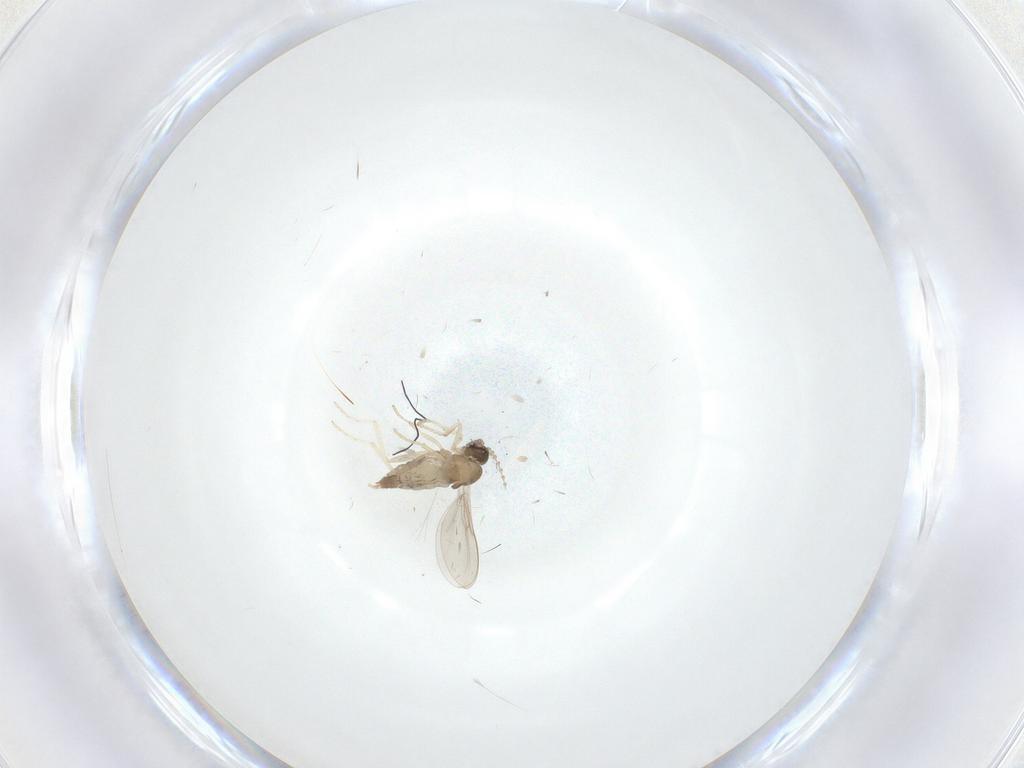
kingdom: Animalia
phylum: Arthropoda
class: Insecta
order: Diptera
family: Cecidomyiidae
